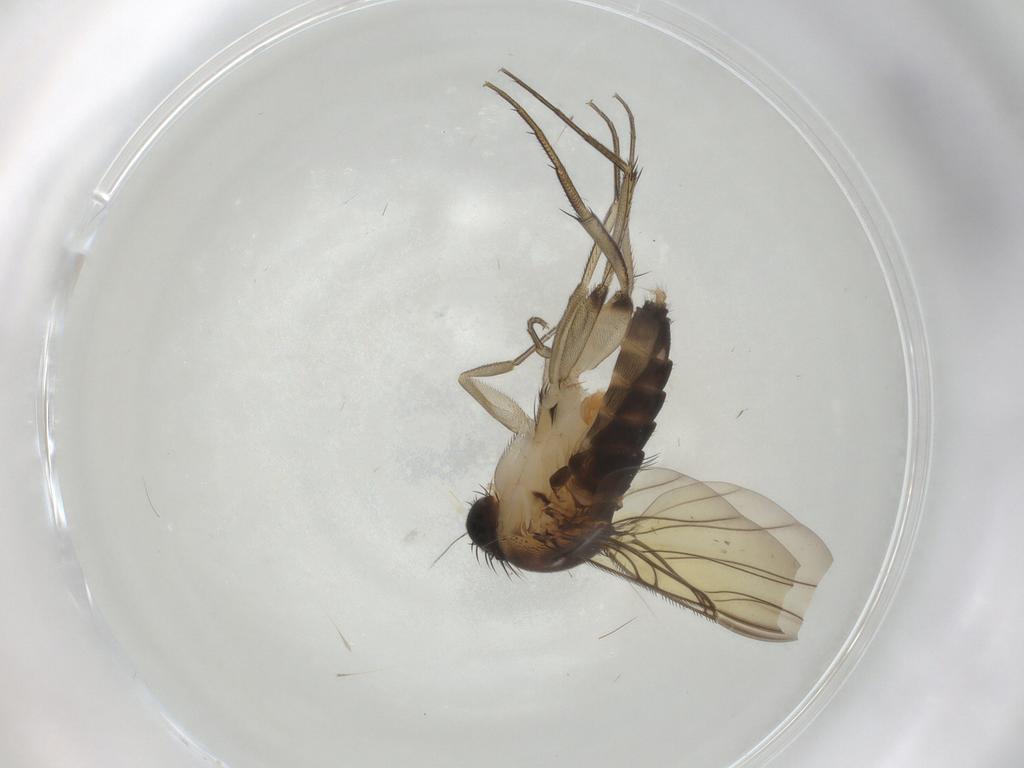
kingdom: Animalia
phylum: Arthropoda
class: Insecta
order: Diptera
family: Phoridae
